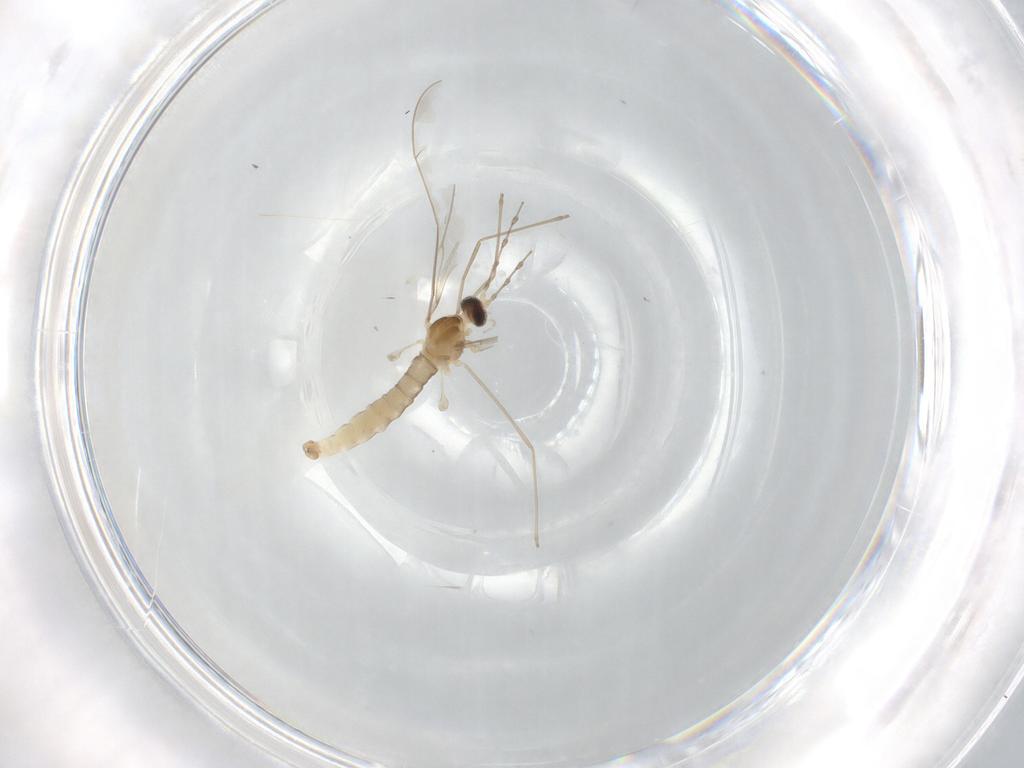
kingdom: Animalia
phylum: Arthropoda
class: Insecta
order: Diptera
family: Cecidomyiidae
